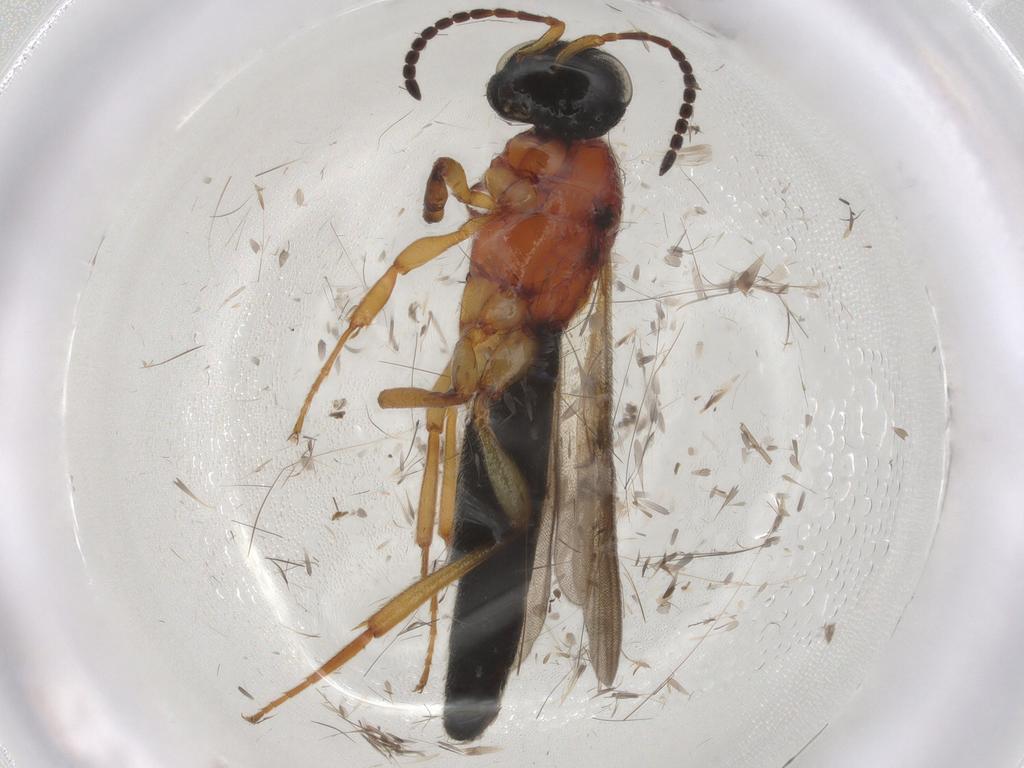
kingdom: Animalia
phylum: Arthropoda
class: Insecta
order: Hymenoptera
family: Scelionidae
